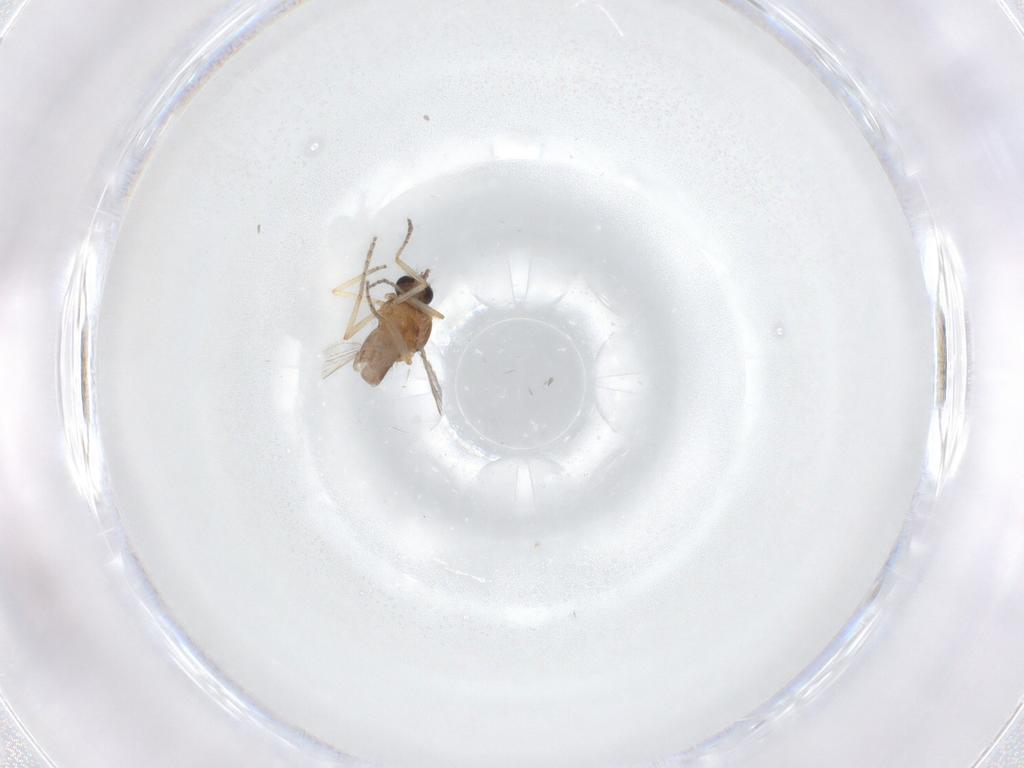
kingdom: Animalia
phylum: Arthropoda
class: Insecta
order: Diptera
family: Ceratopogonidae
